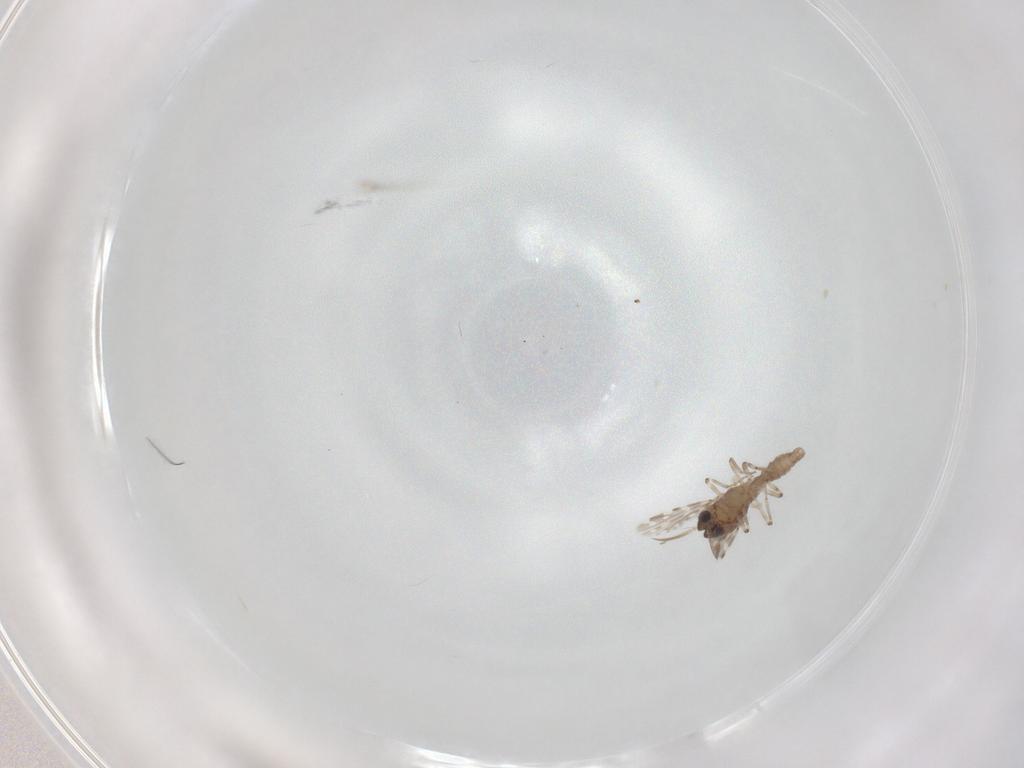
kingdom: Animalia
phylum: Arthropoda
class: Insecta
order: Diptera
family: Ceratopogonidae
